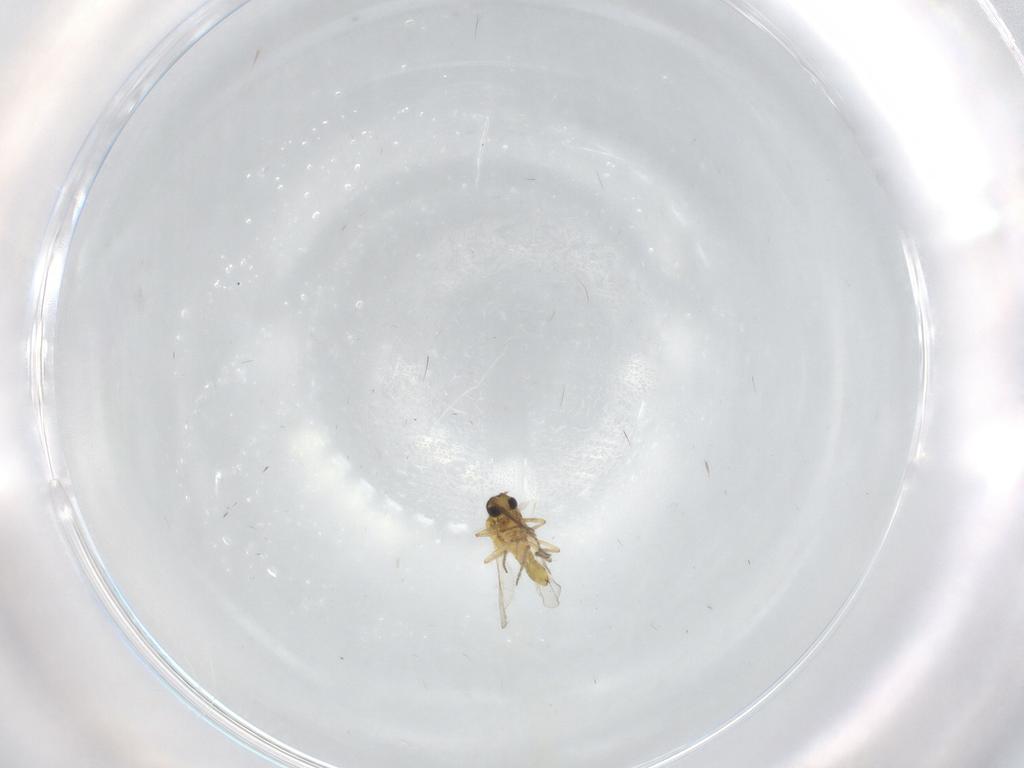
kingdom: Animalia
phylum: Arthropoda
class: Insecta
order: Diptera
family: Ceratopogonidae
